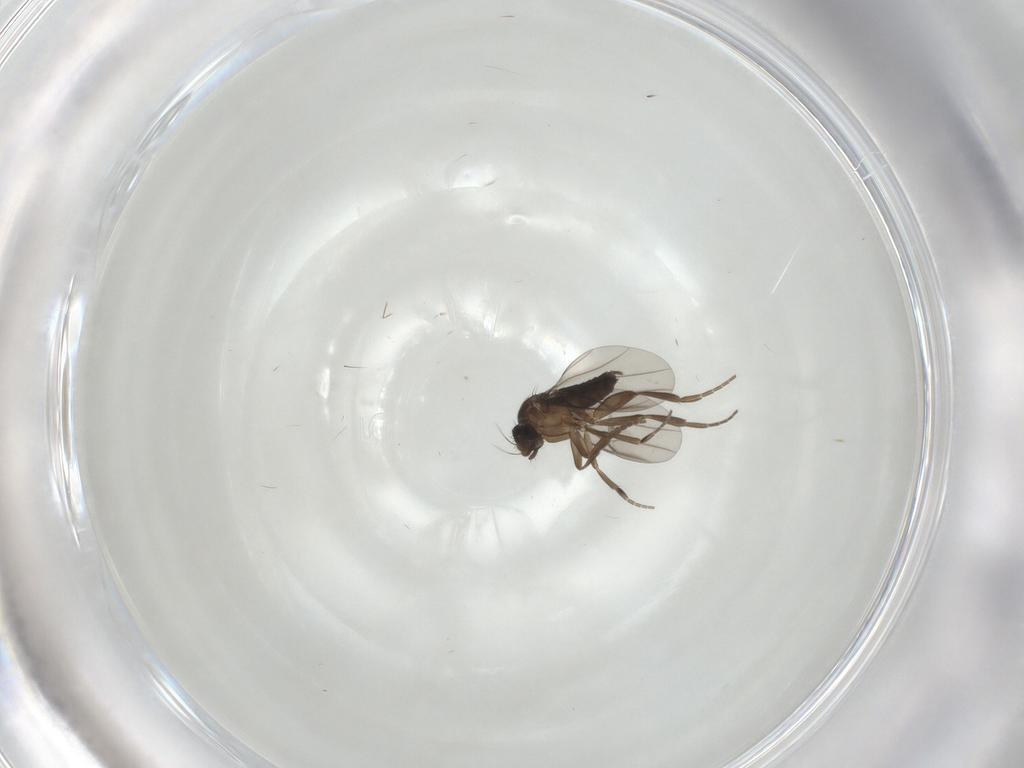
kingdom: Animalia
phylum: Arthropoda
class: Insecta
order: Diptera
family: Phoridae
